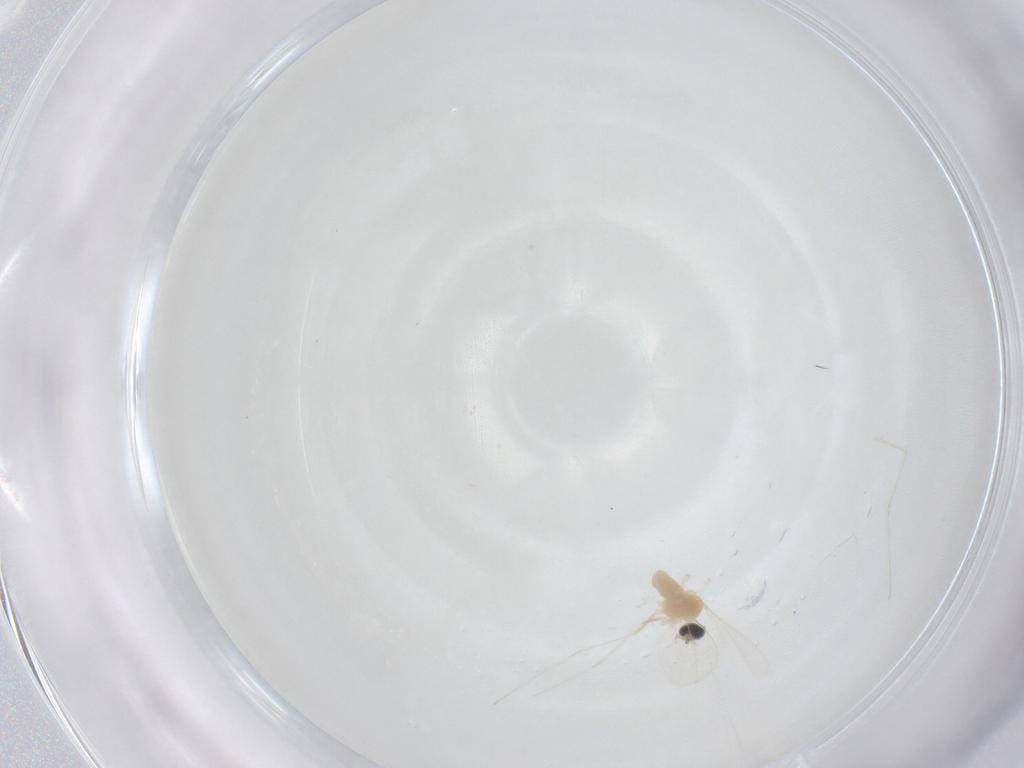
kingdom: Animalia
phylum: Arthropoda
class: Insecta
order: Diptera
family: Cecidomyiidae
